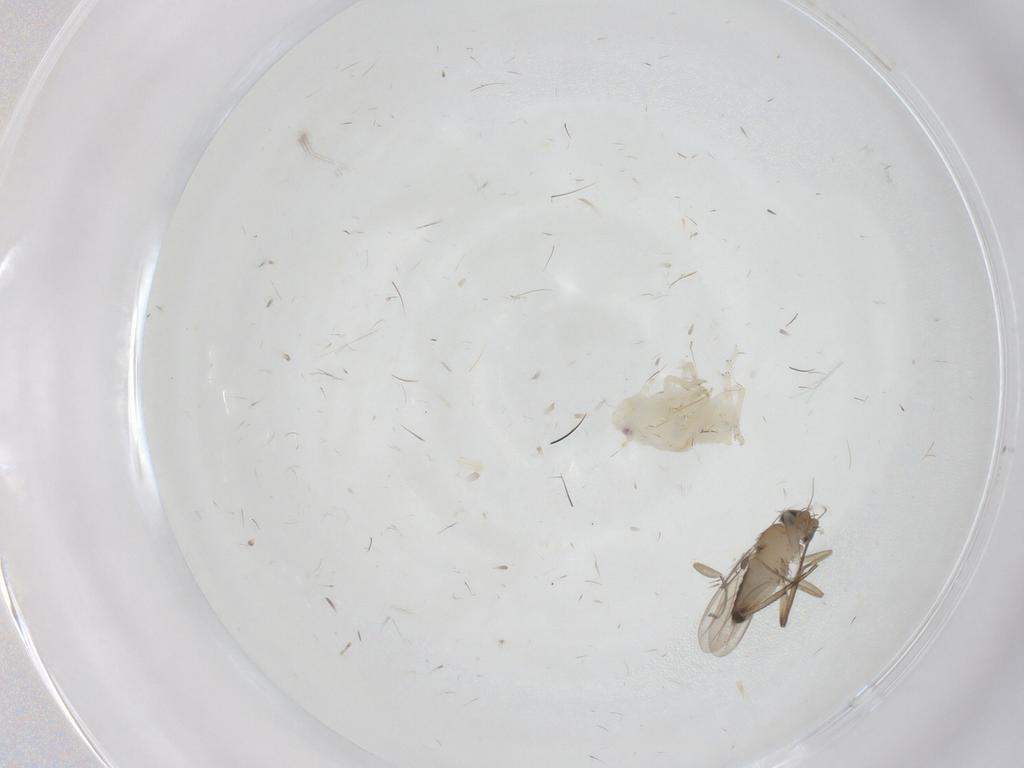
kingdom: Animalia
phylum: Arthropoda
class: Insecta
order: Diptera
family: Phoridae
